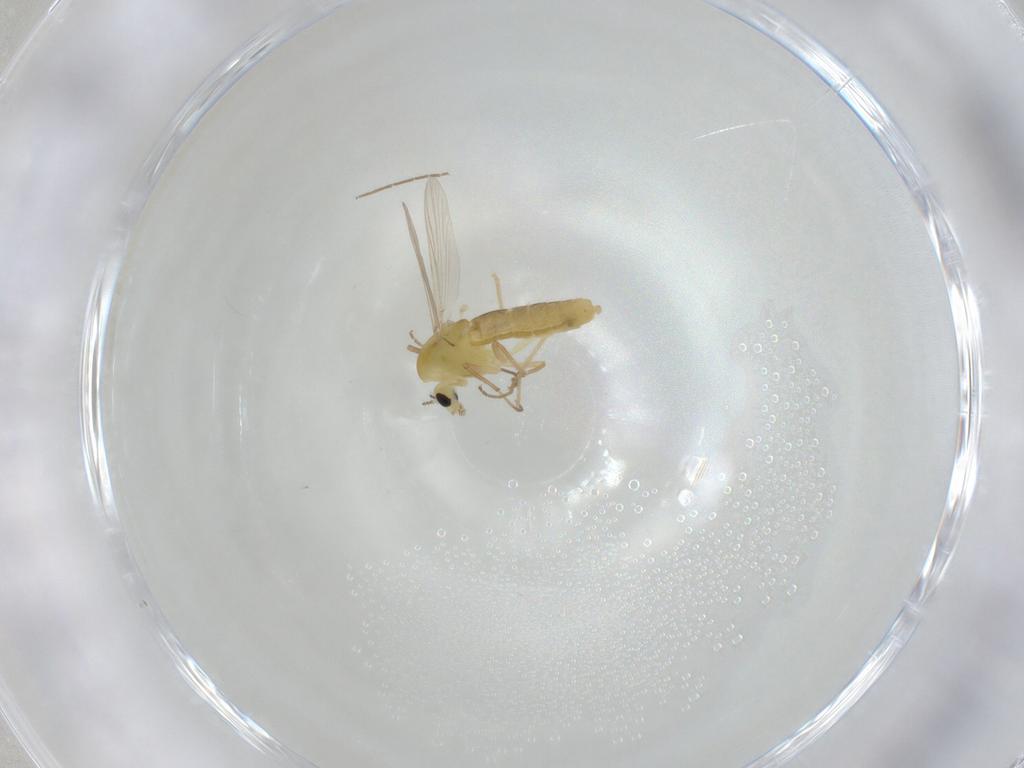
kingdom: Animalia
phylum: Arthropoda
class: Insecta
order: Diptera
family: Chironomidae
